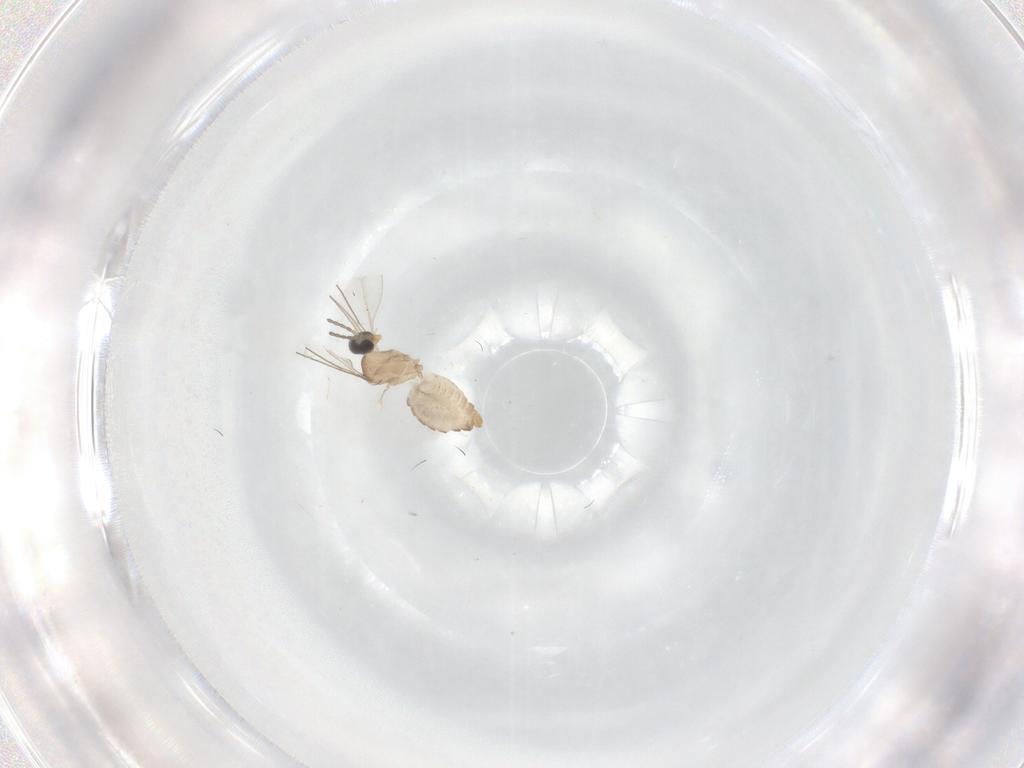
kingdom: Animalia
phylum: Arthropoda
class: Insecta
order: Diptera
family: Cecidomyiidae
